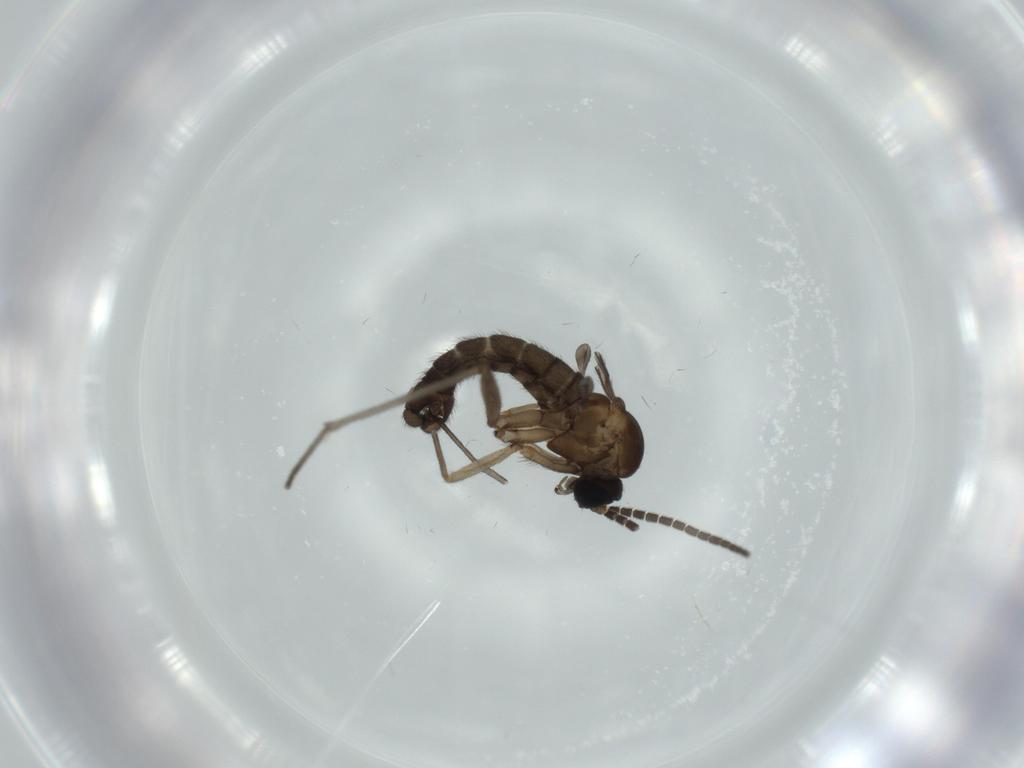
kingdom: Animalia
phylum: Arthropoda
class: Insecta
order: Diptera
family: Sciaridae
